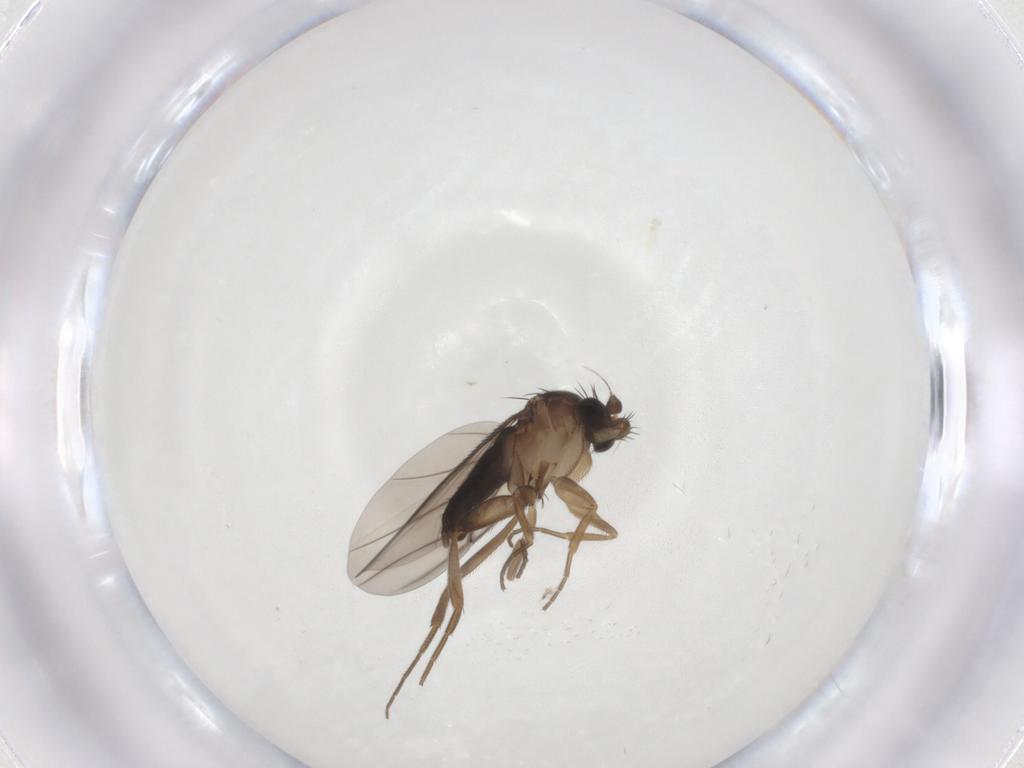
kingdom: Animalia
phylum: Arthropoda
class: Insecta
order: Diptera
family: Phoridae
